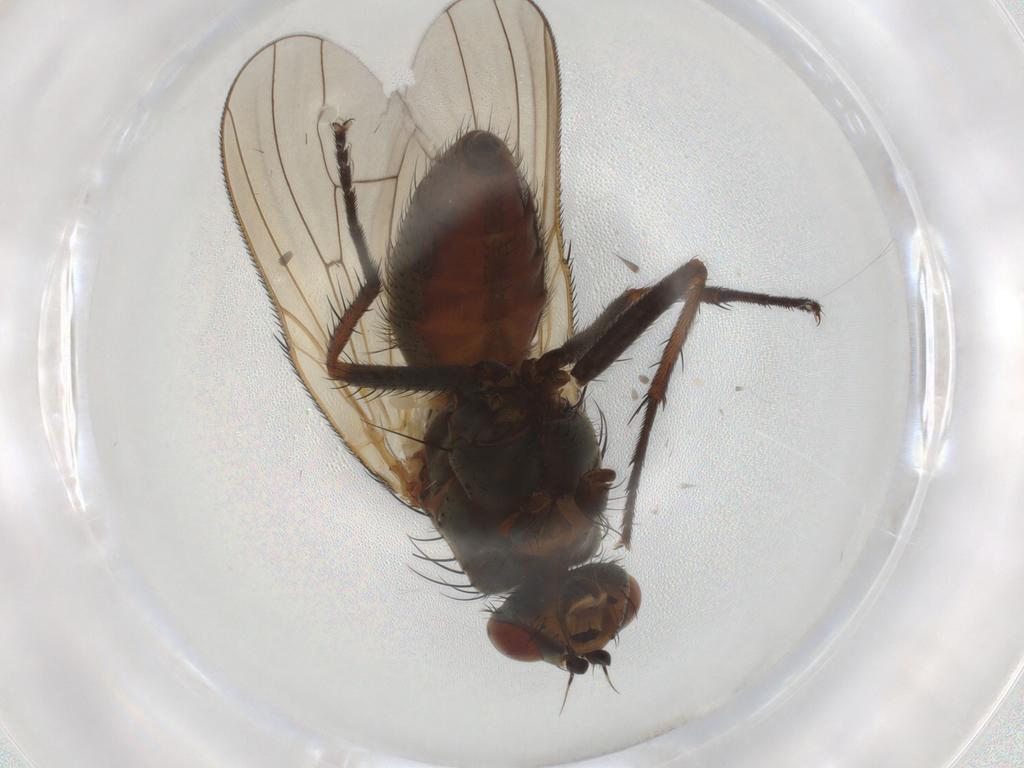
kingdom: Animalia
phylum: Arthropoda
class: Insecta
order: Diptera
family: Anthomyiidae
